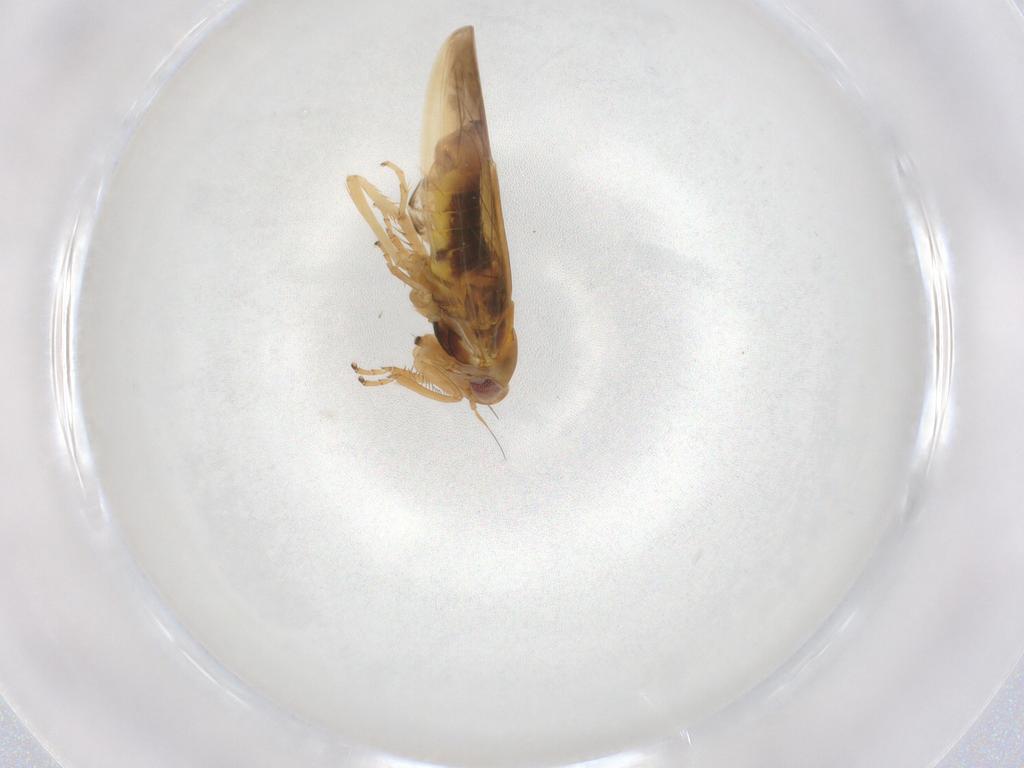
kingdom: Animalia
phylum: Arthropoda
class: Insecta
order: Hemiptera
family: Cicadellidae
